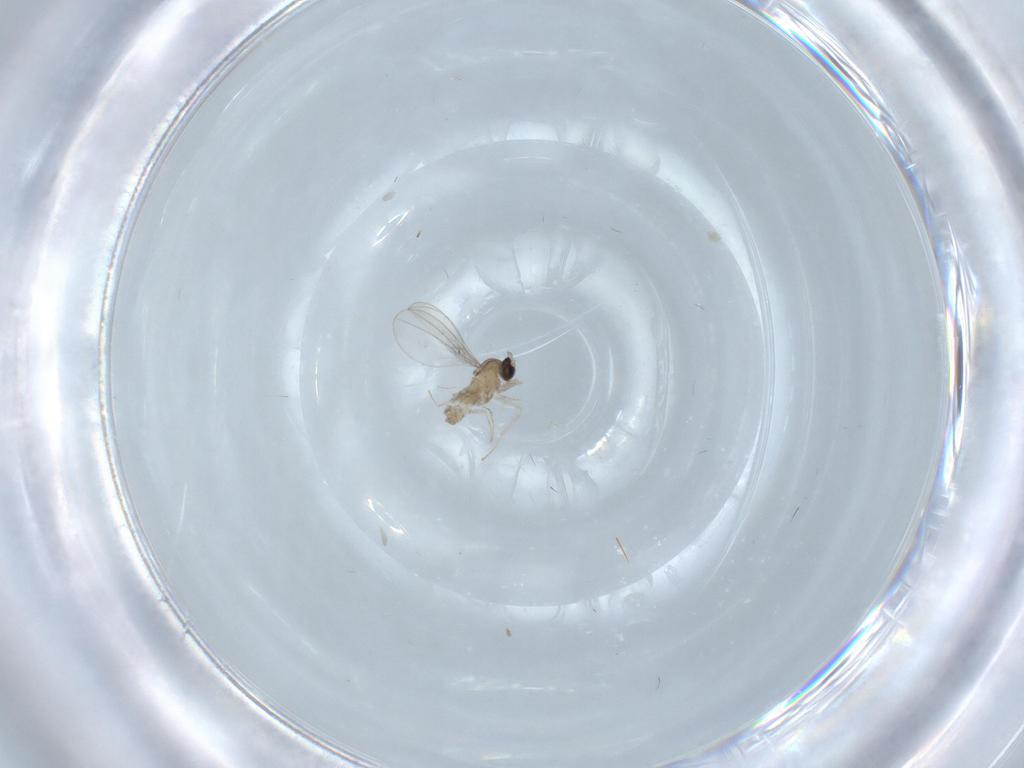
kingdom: Animalia
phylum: Arthropoda
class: Insecta
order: Diptera
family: Cecidomyiidae
